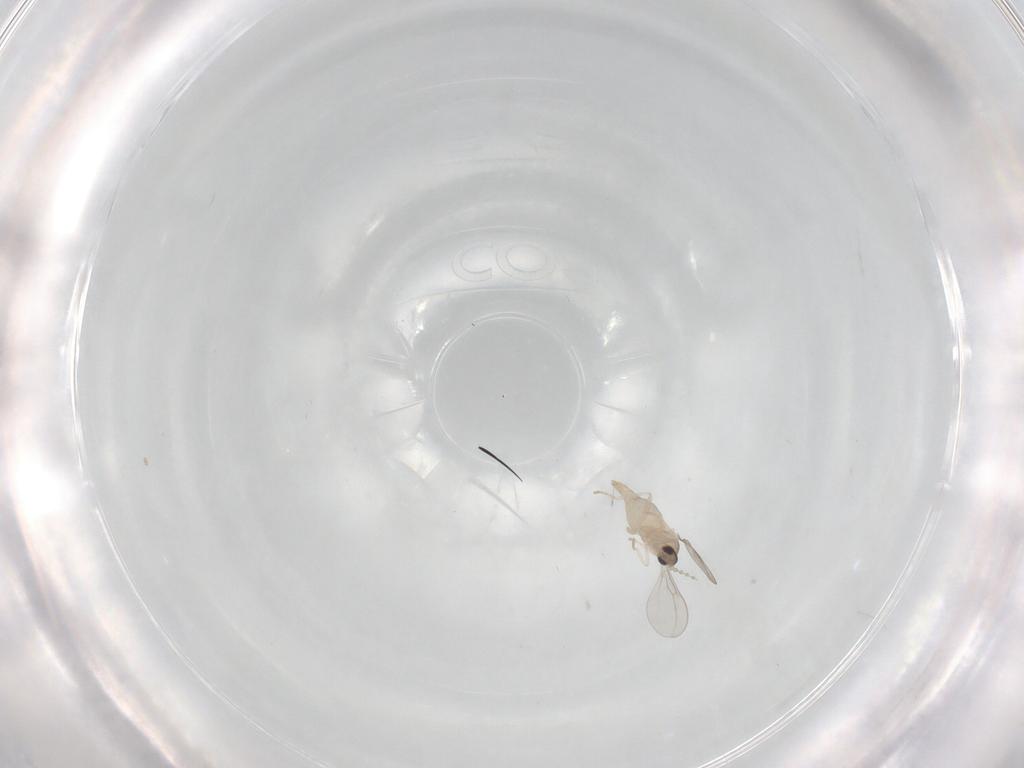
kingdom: Animalia
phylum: Arthropoda
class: Insecta
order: Diptera
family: Cecidomyiidae
